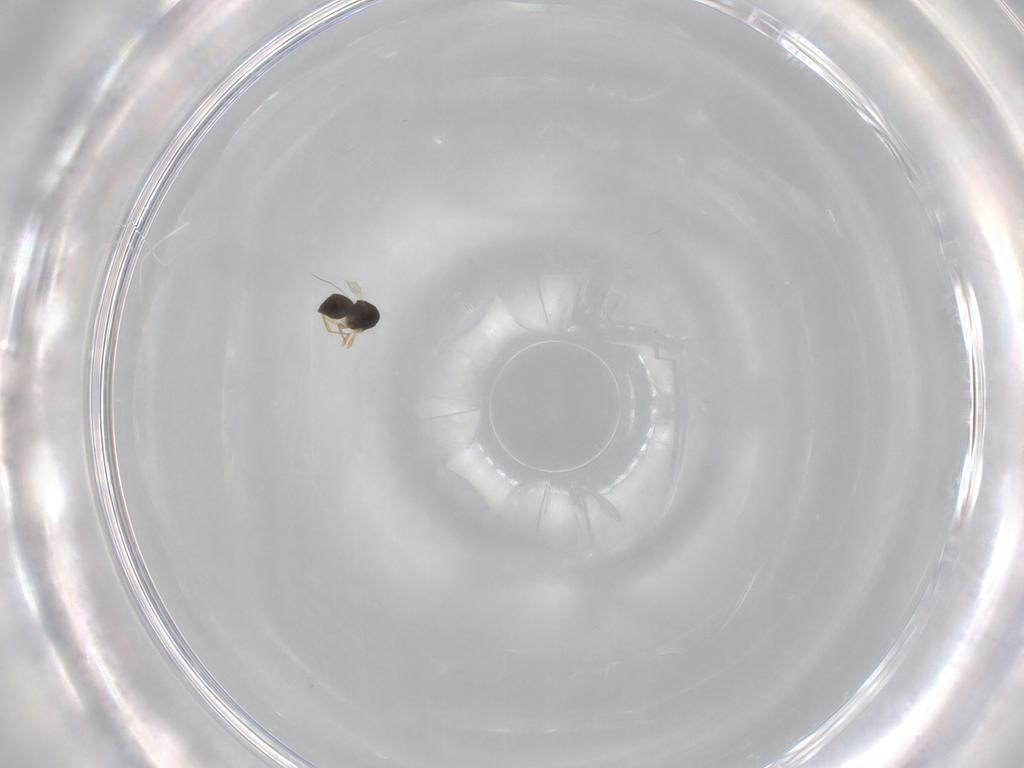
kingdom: Animalia
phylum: Arthropoda
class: Insecta
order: Hymenoptera
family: Ceraphronidae
